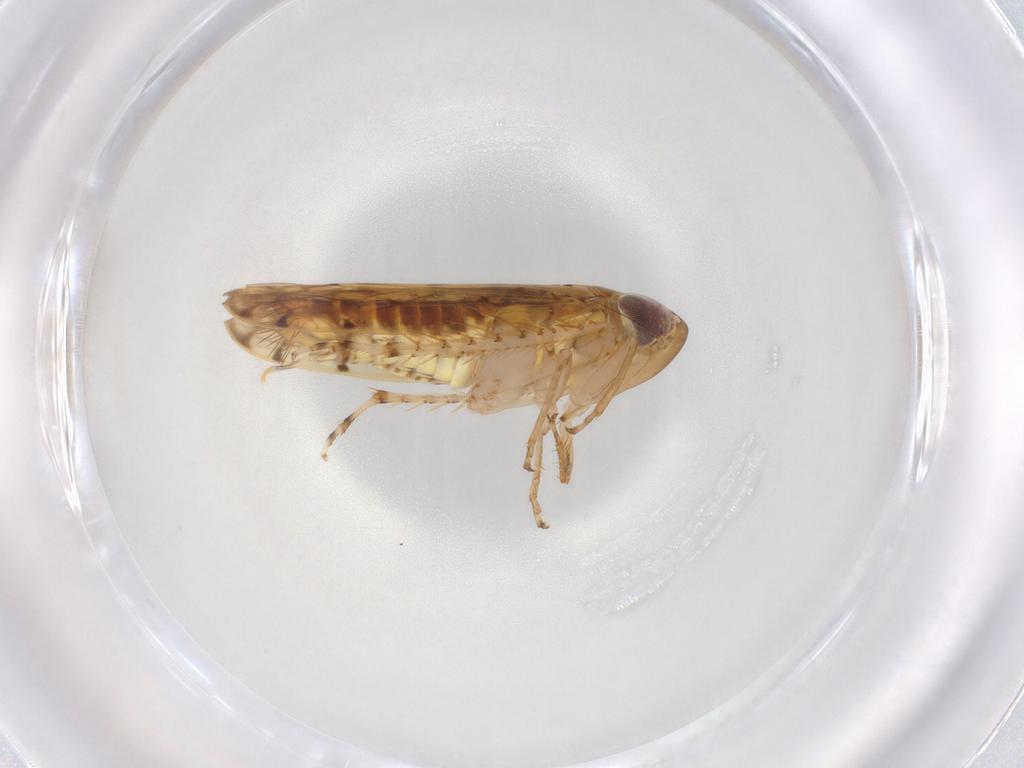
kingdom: Animalia
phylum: Arthropoda
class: Insecta
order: Hemiptera
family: Cicadellidae
